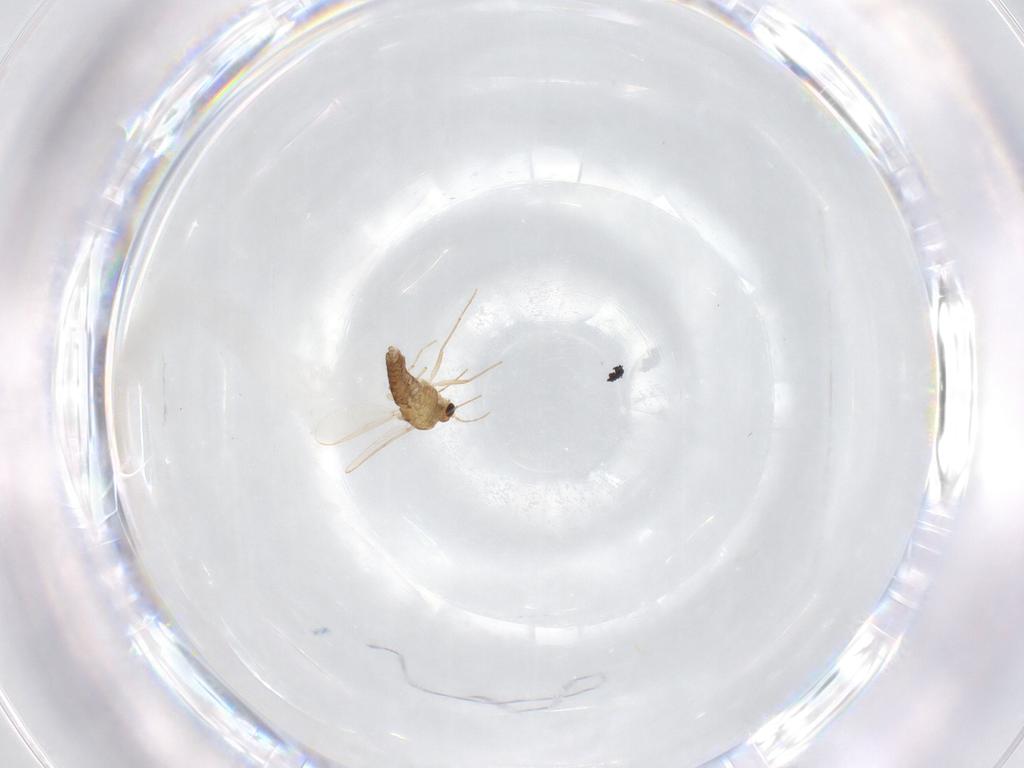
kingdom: Animalia
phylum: Arthropoda
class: Insecta
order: Diptera
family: Chironomidae
